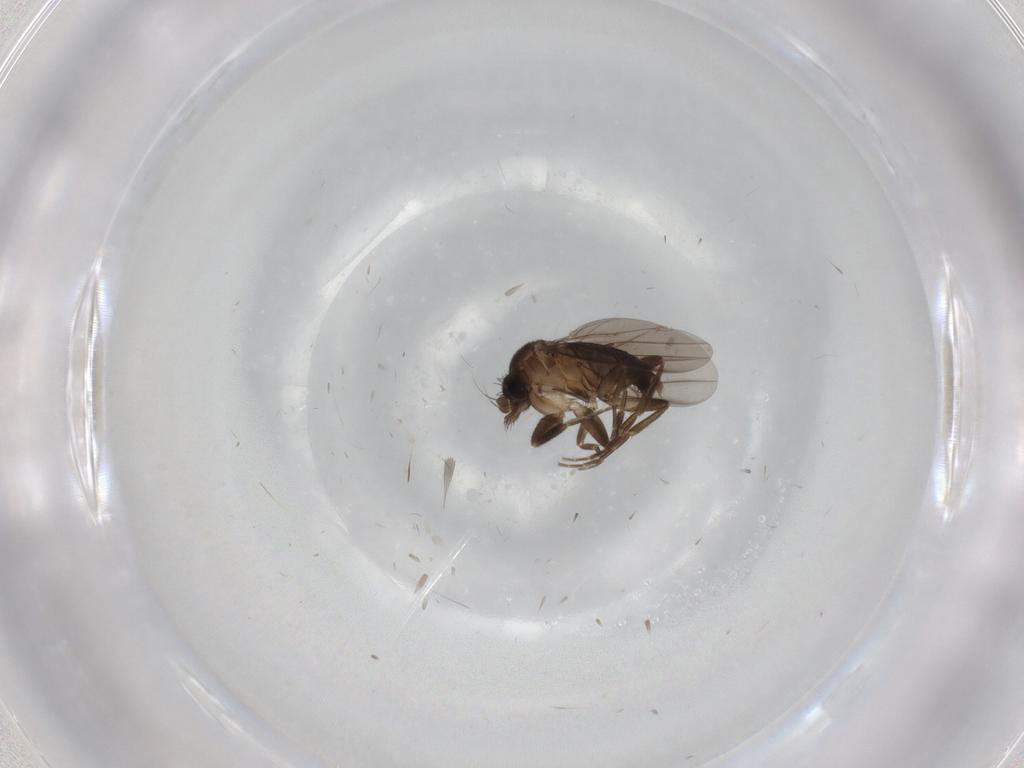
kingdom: Animalia
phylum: Arthropoda
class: Insecta
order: Diptera
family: Phoridae
